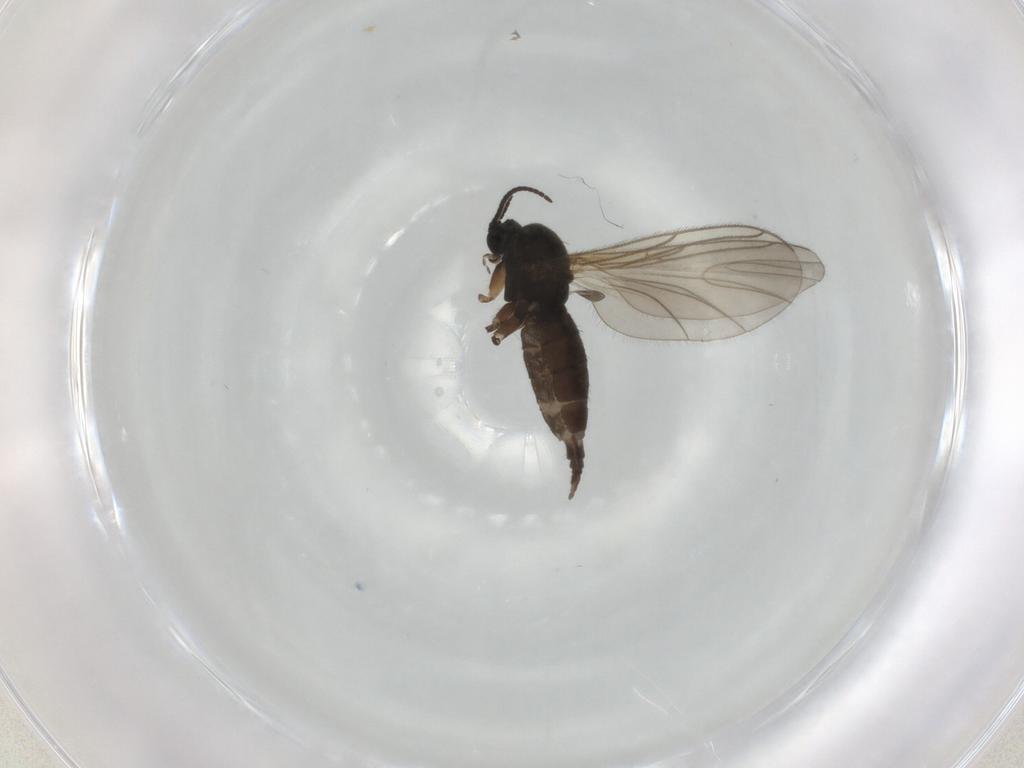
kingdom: Animalia
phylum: Arthropoda
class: Insecta
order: Diptera
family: Sciaridae
